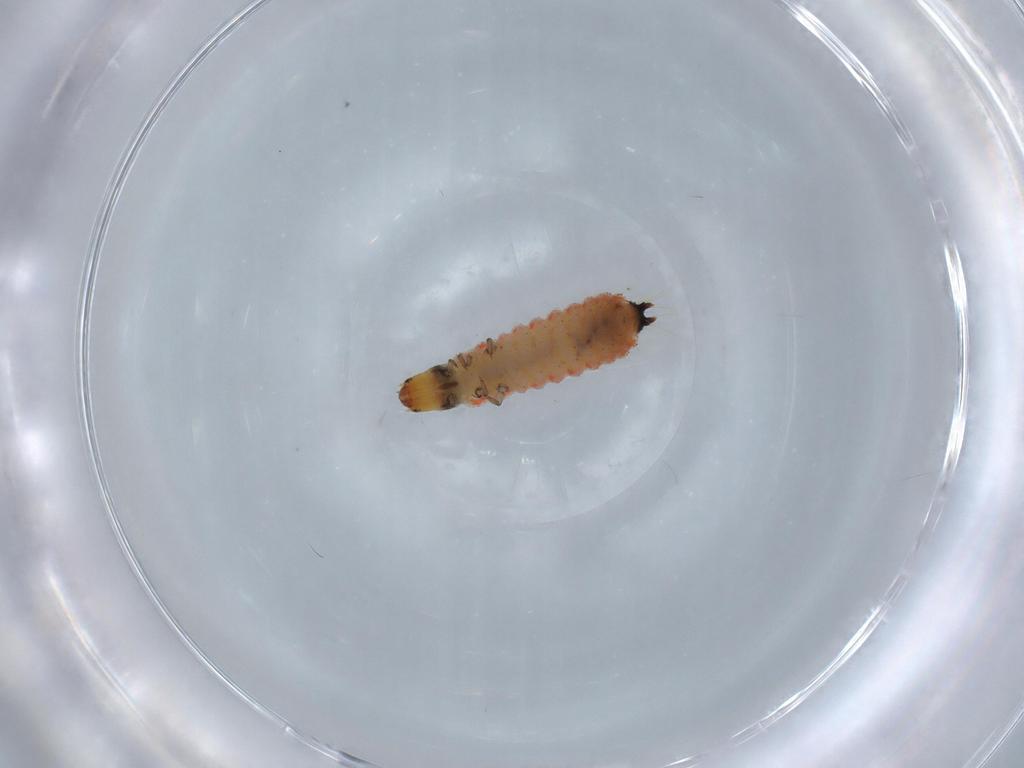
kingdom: Animalia
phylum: Arthropoda
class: Insecta
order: Coleoptera
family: Cleridae
